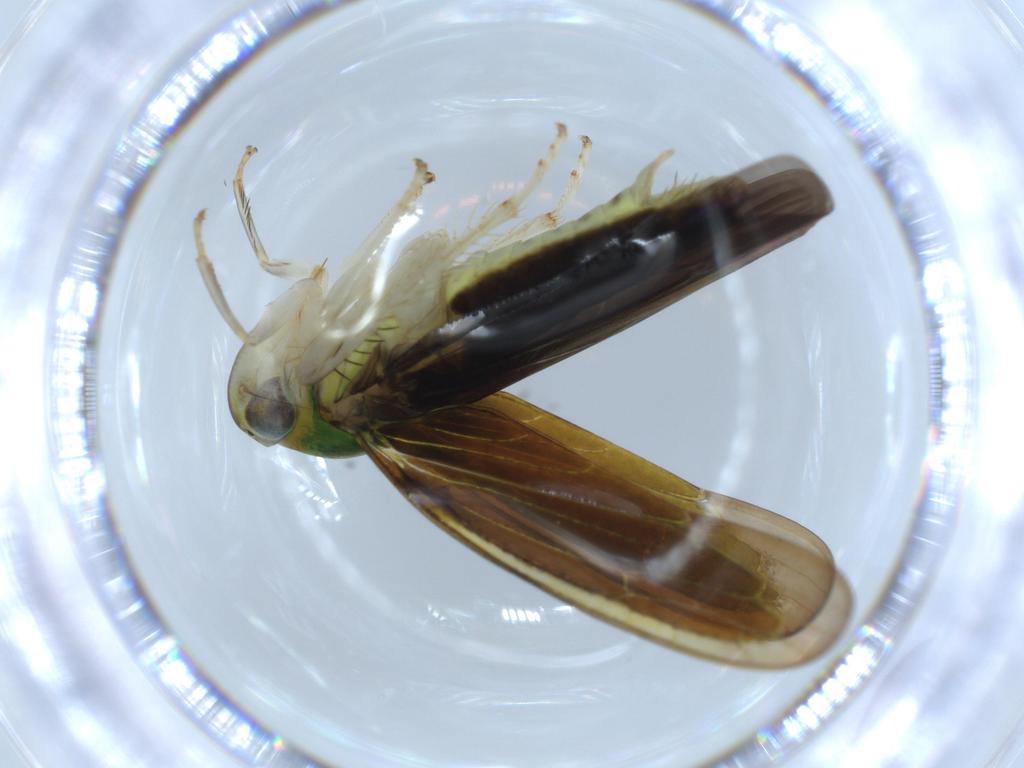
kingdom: Animalia
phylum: Arthropoda
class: Insecta
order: Hemiptera
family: Cicadellidae
